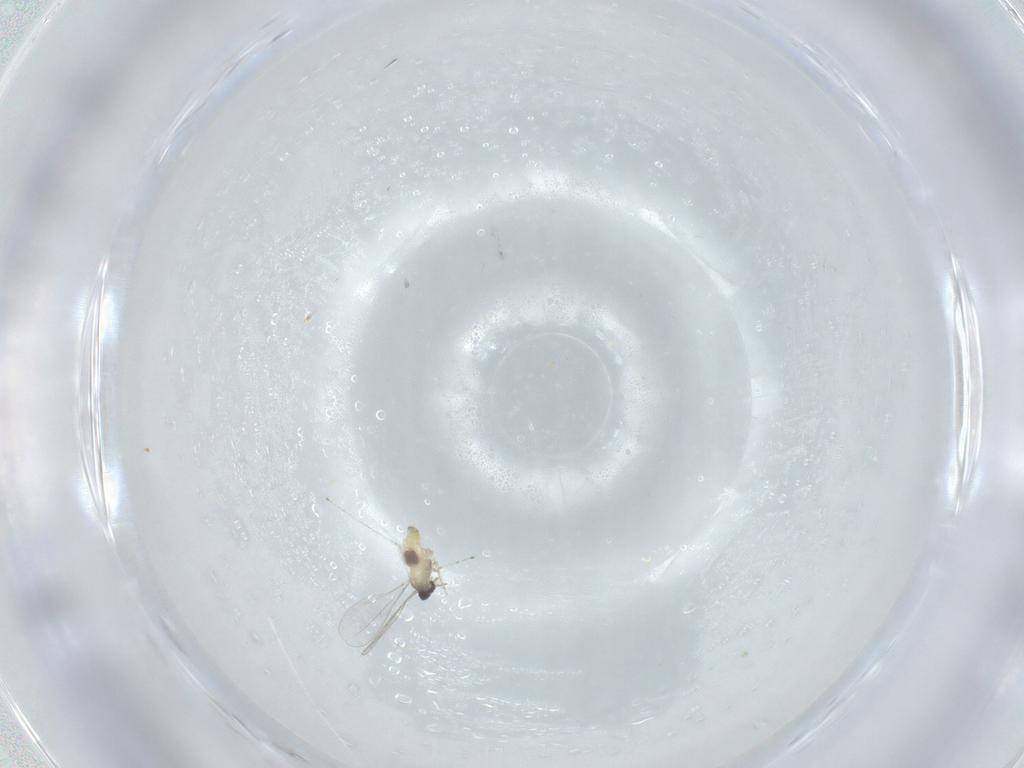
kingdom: Animalia
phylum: Arthropoda
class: Insecta
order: Diptera
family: Cecidomyiidae
